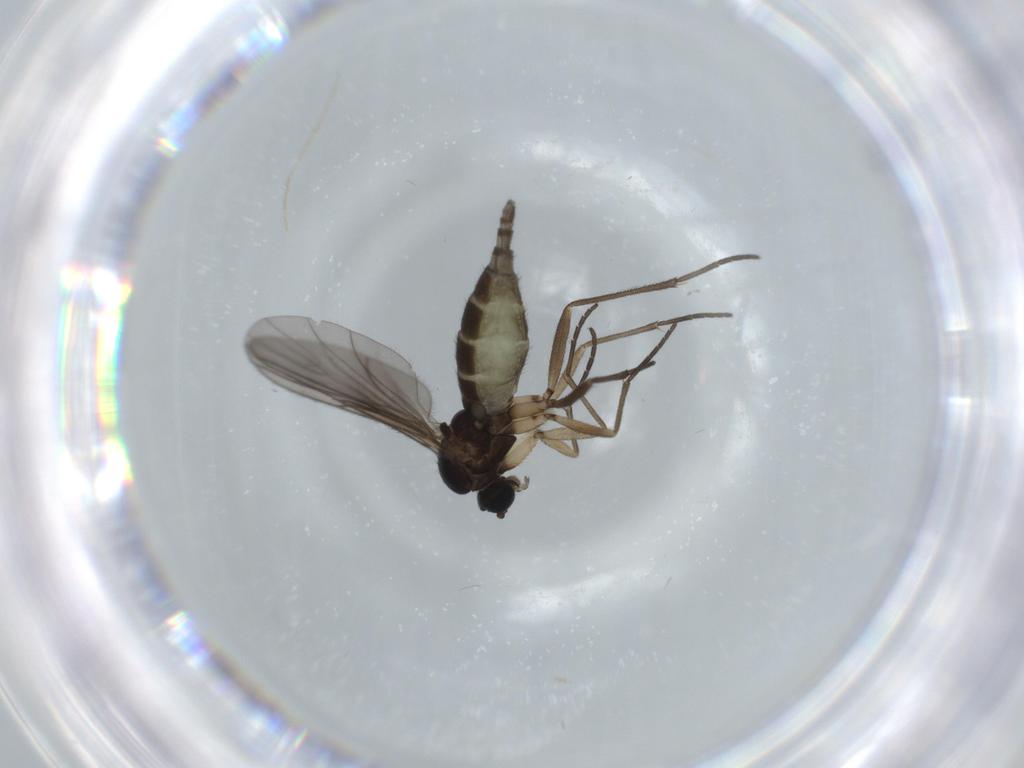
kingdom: Animalia
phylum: Arthropoda
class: Insecta
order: Diptera
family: Sciaridae
